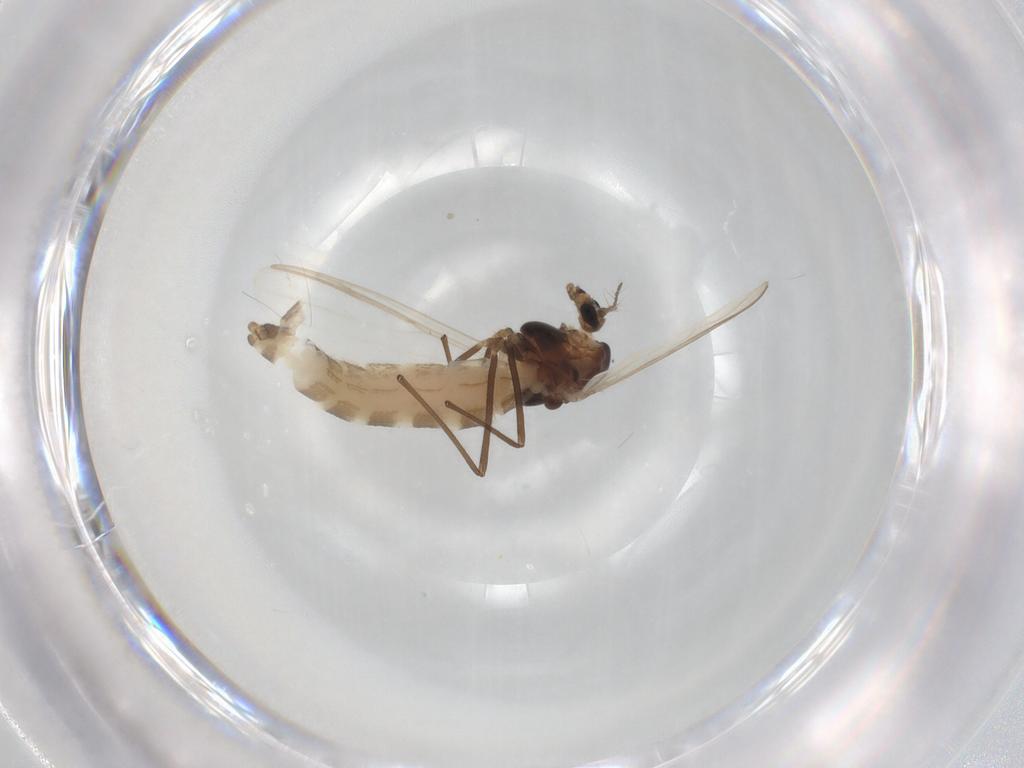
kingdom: Animalia
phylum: Arthropoda
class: Insecta
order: Diptera
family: Chironomidae
